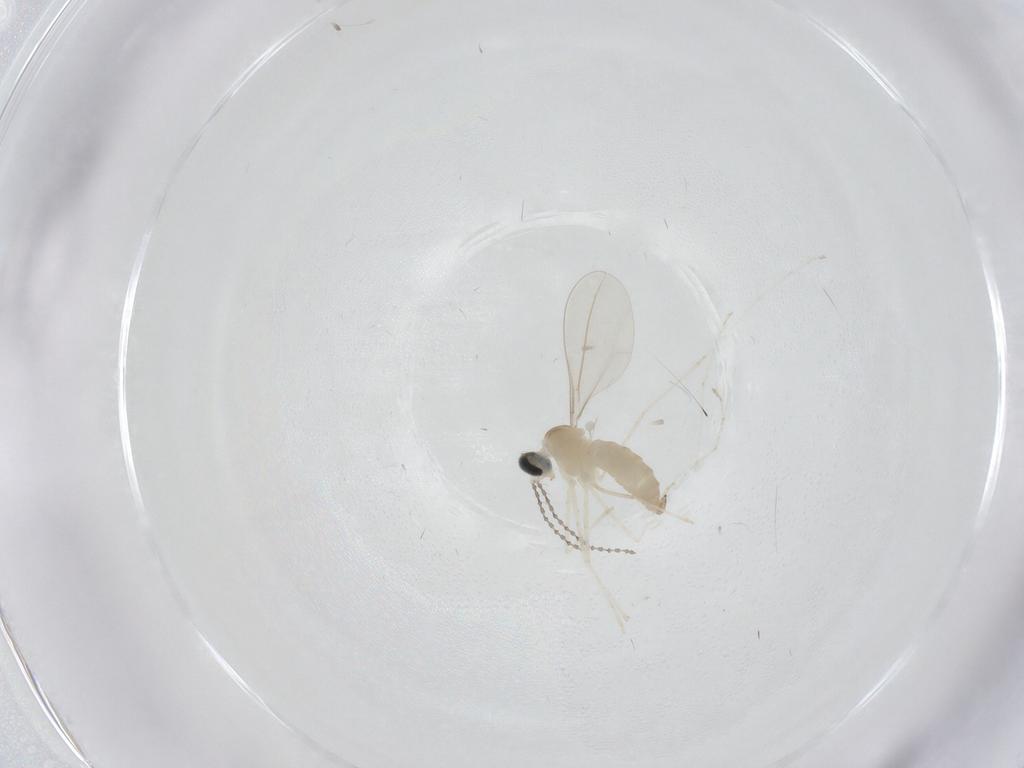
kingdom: Animalia
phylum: Arthropoda
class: Insecta
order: Diptera
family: Cecidomyiidae
